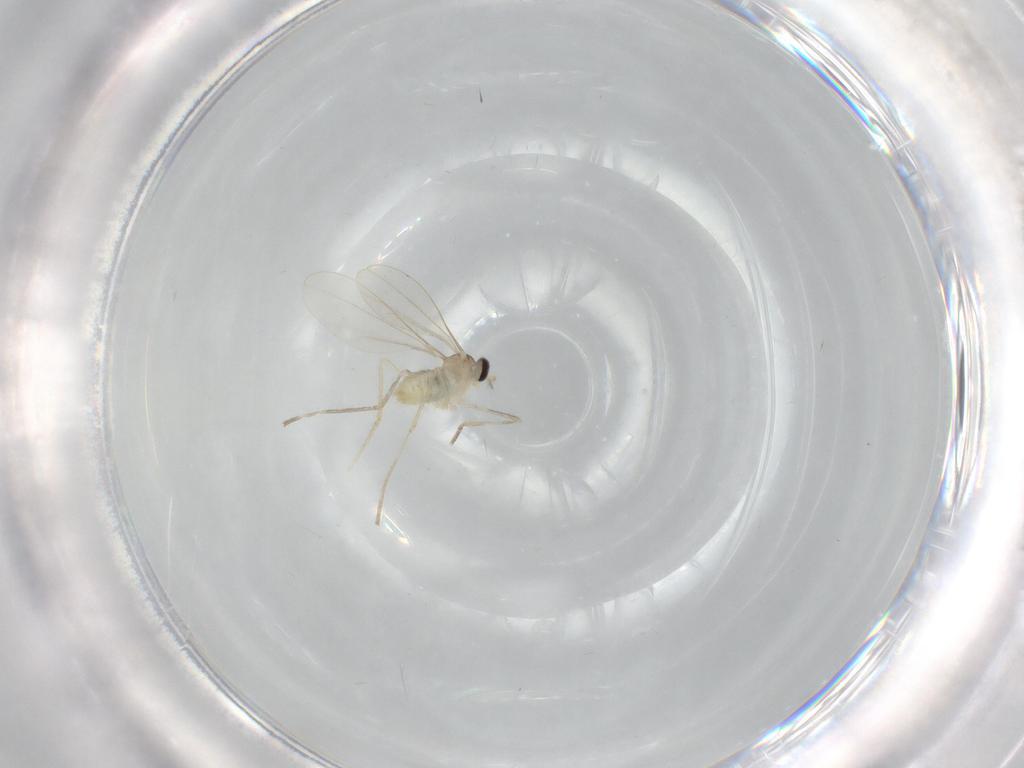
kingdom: Animalia
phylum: Arthropoda
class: Insecta
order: Diptera
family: Cecidomyiidae
